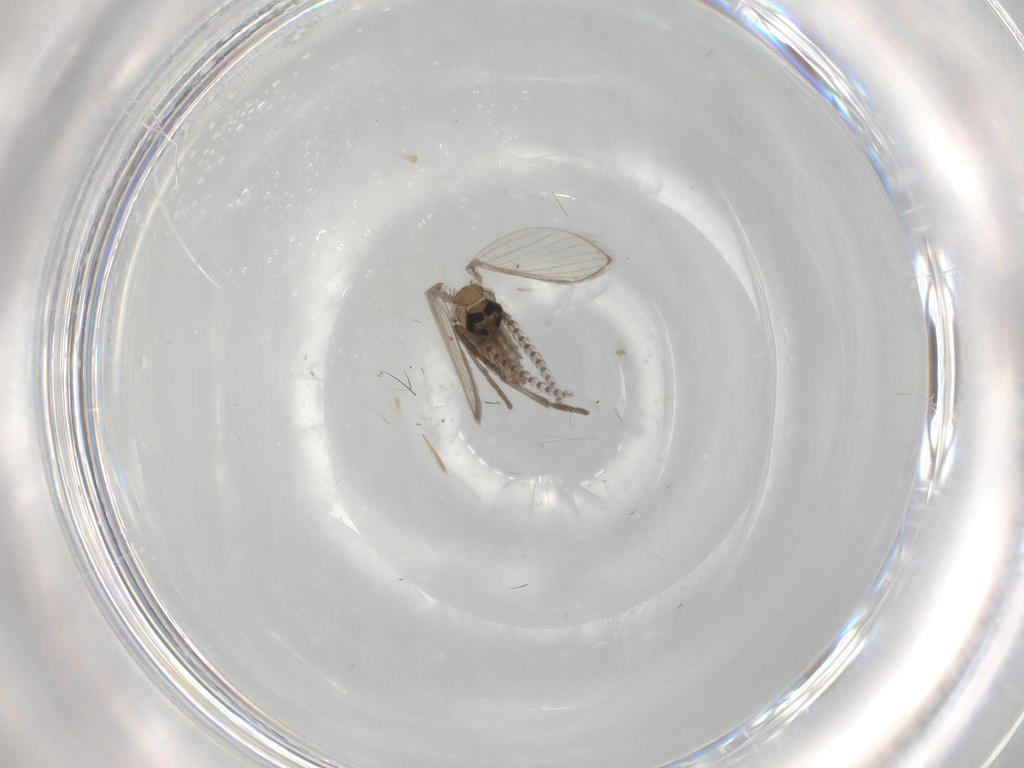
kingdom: Animalia
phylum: Arthropoda
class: Insecta
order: Diptera
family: Psychodidae
